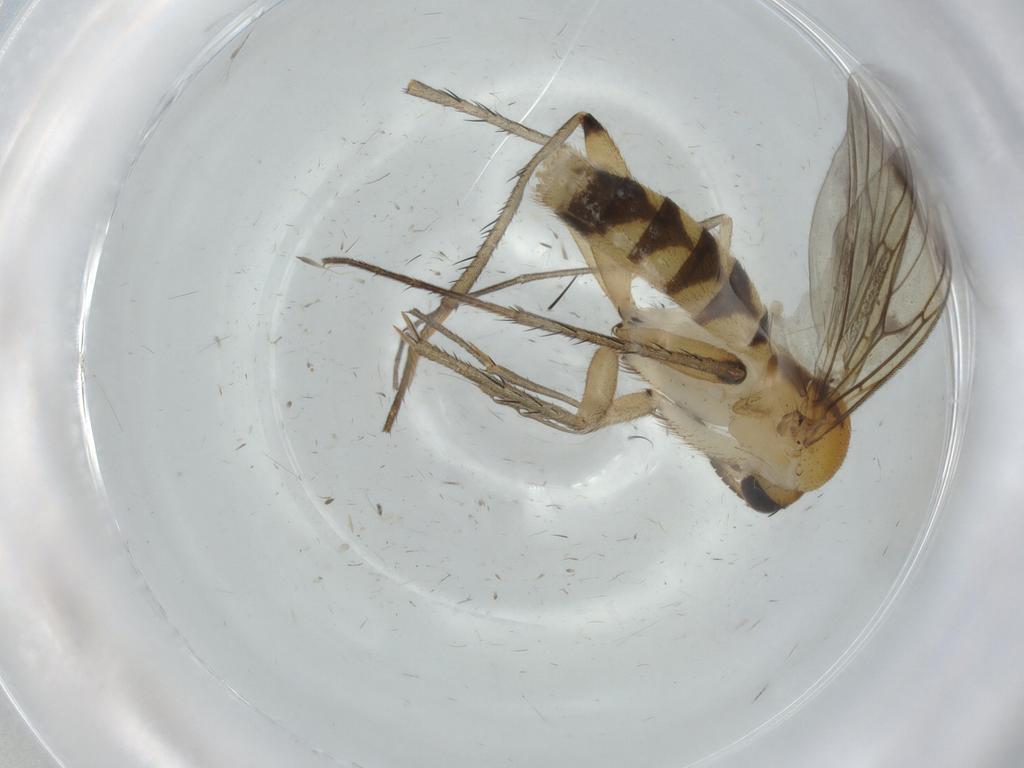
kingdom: Animalia
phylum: Arthropoda
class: Insecta
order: Diptera
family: Mycetophilidae
